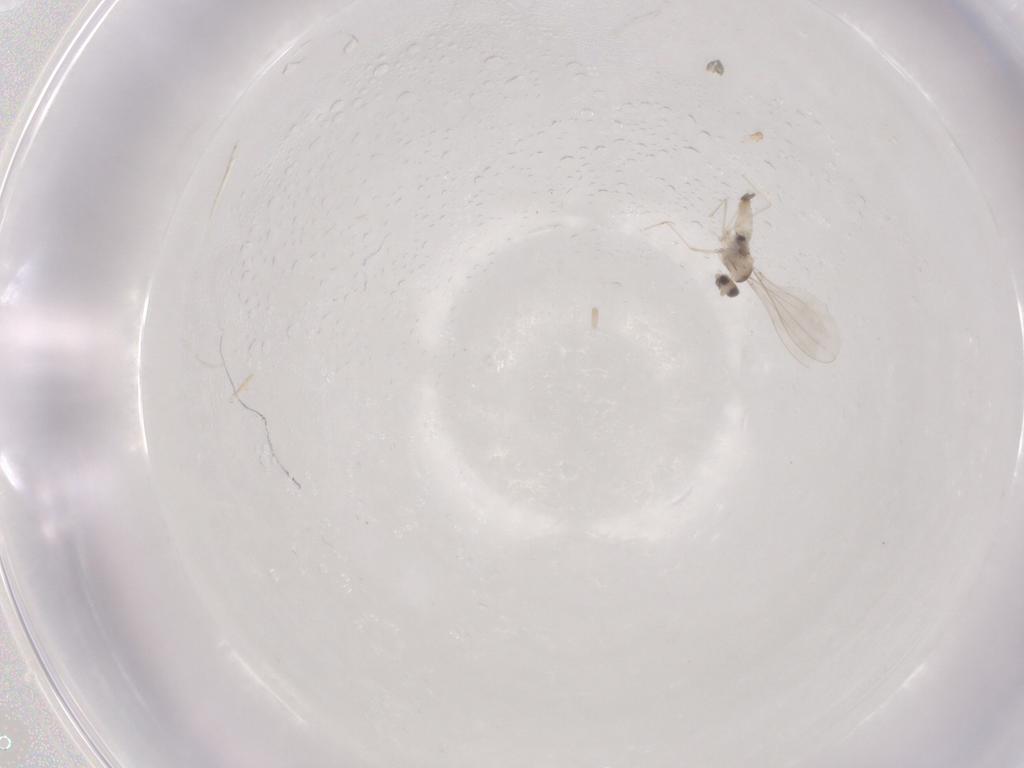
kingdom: Animalia
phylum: Arthropoda
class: Insecta
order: Diptera
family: Cecidomyiidae
